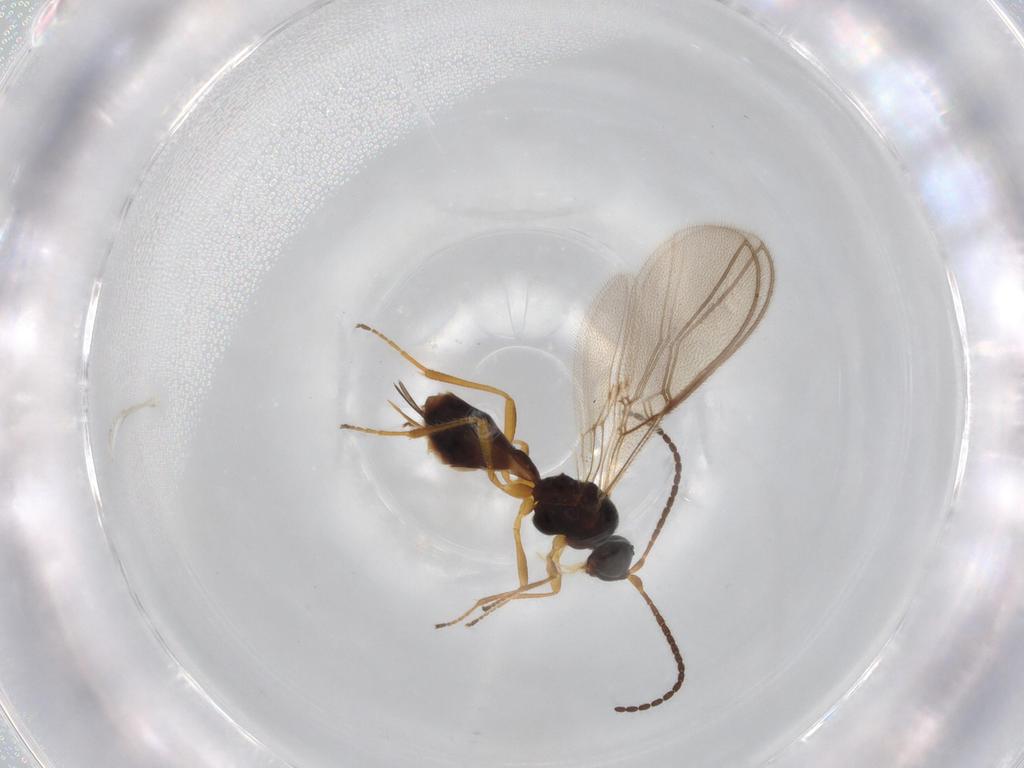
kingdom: Animalia
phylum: Arthropoda
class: Insecta
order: Hymenoptera
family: Braconidae
